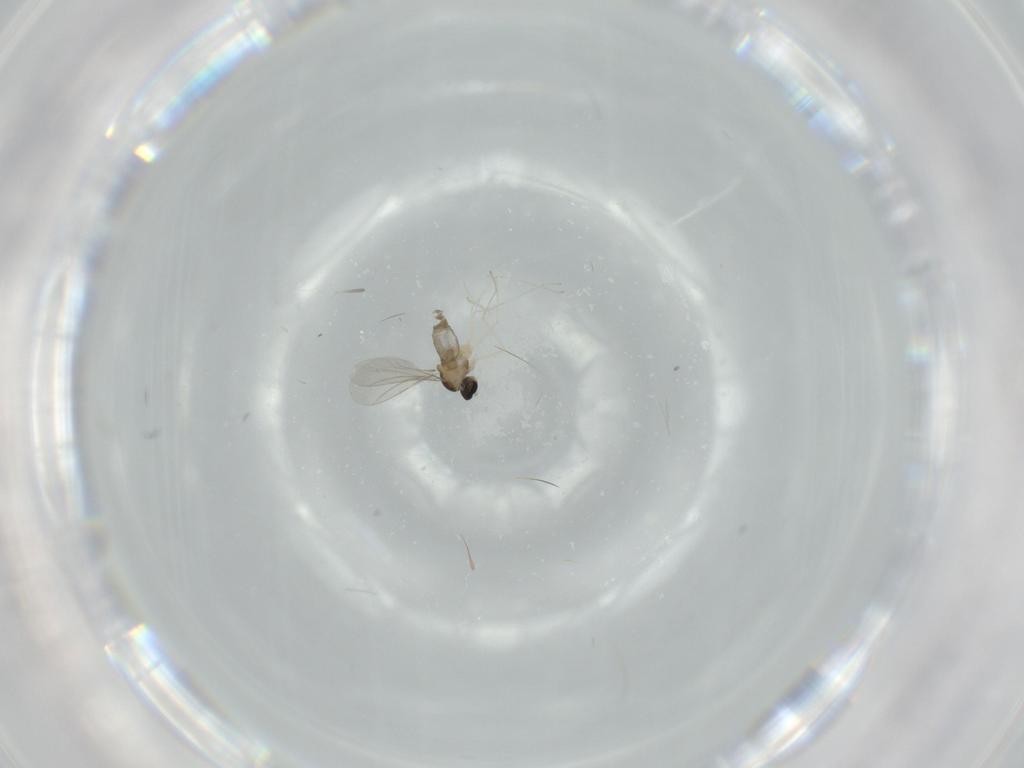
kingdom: Animalia
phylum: Arthropoda
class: Insecta
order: Diptera
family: Cecidomyiidae
